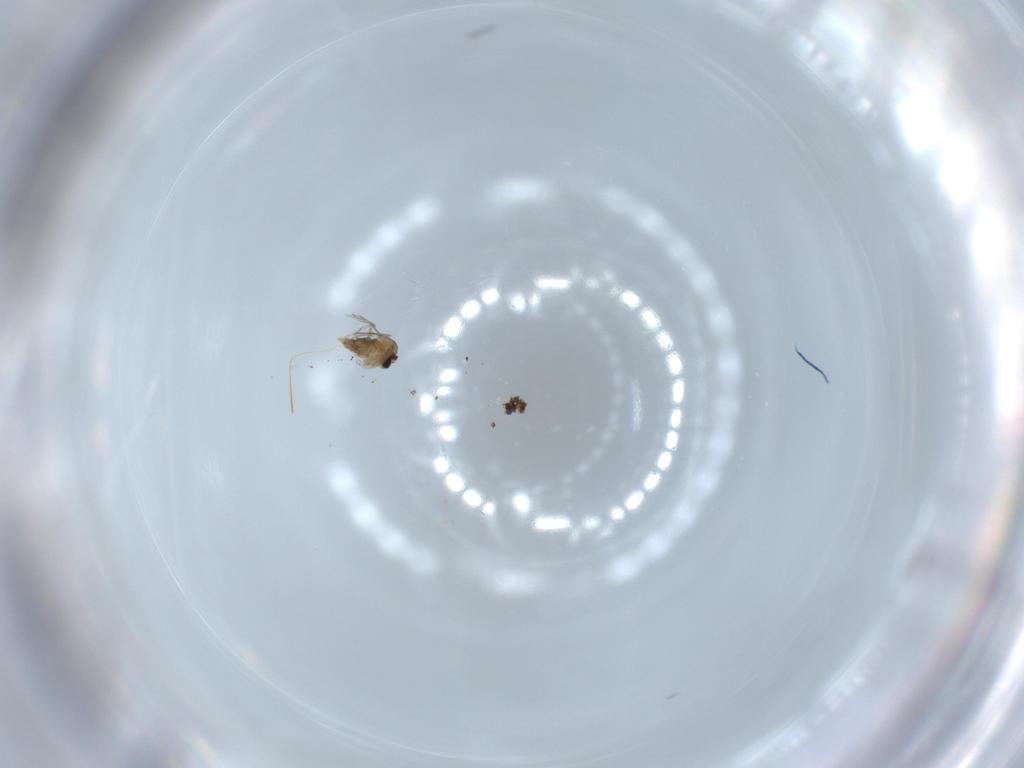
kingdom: Animalia
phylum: Arthropoda
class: Insecta
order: Diptera
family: Cecidomyiidae
